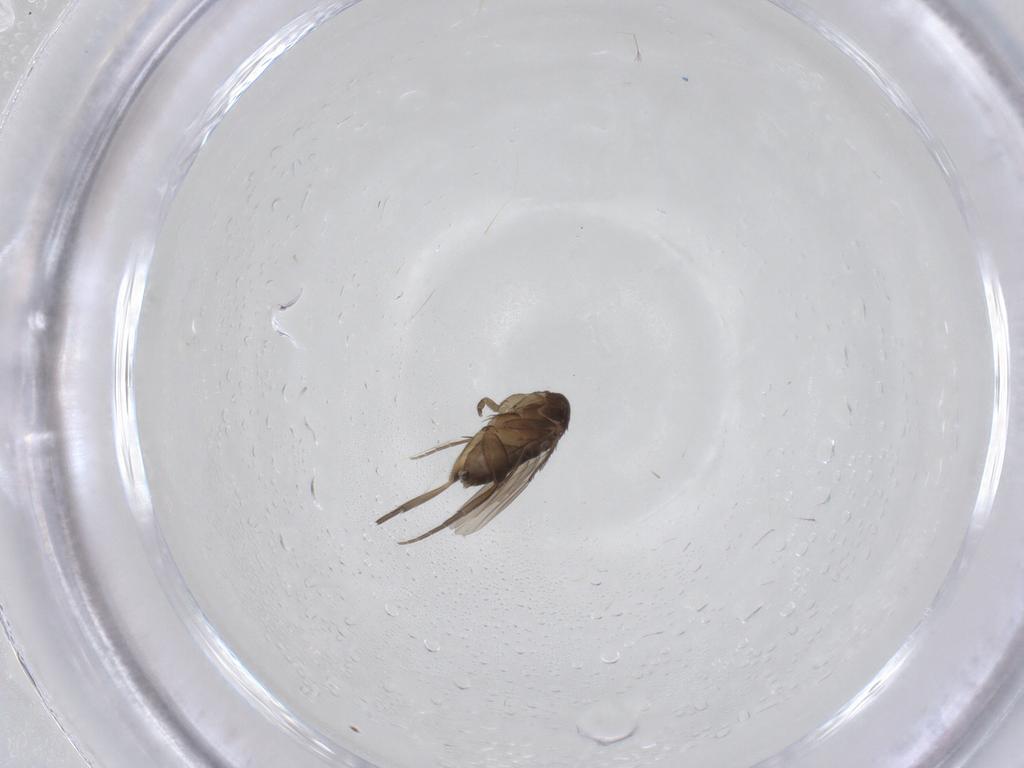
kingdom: Animalia
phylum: Arthropoda
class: Insecta
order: Diptera
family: Phoridae
